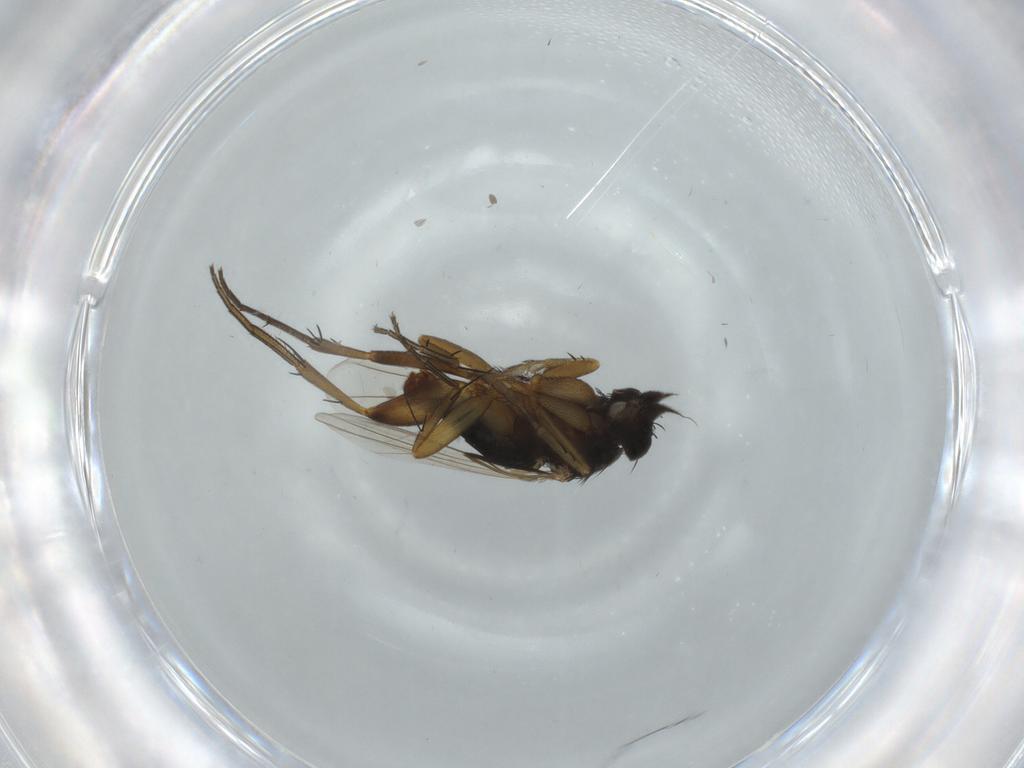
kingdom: Animalia
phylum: Arthropoda
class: Insecta
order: Diptera
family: Phoridae
